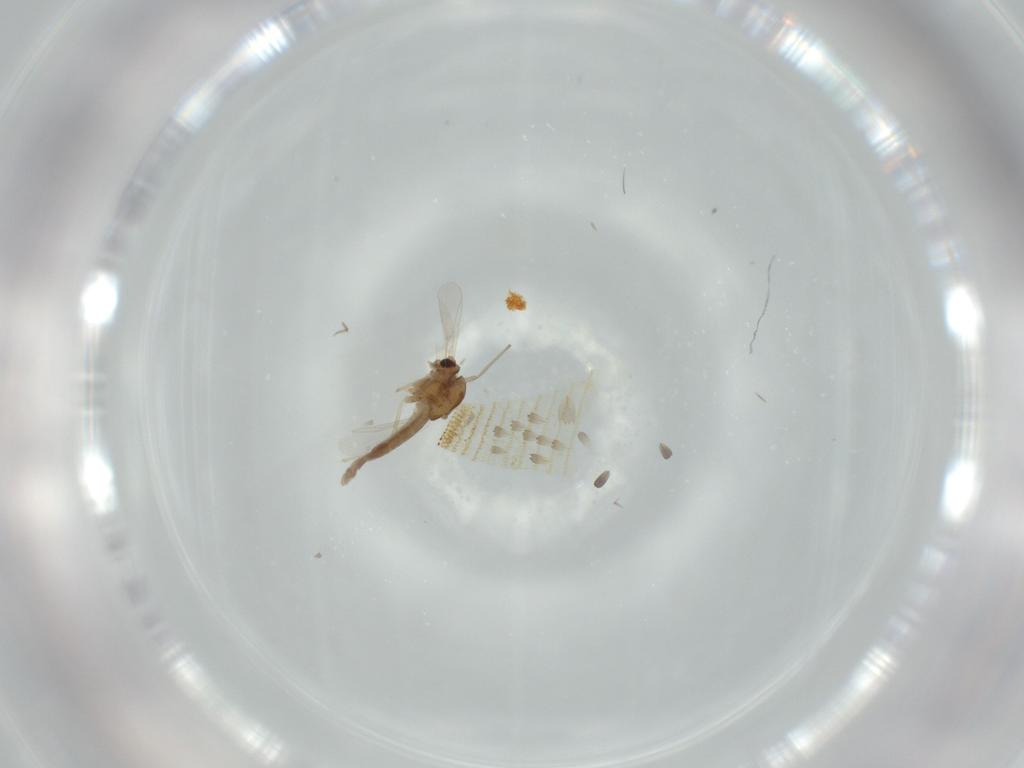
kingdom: Animalia
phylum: Arthropoda
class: Insecta
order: Diptera
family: Chironomidae
